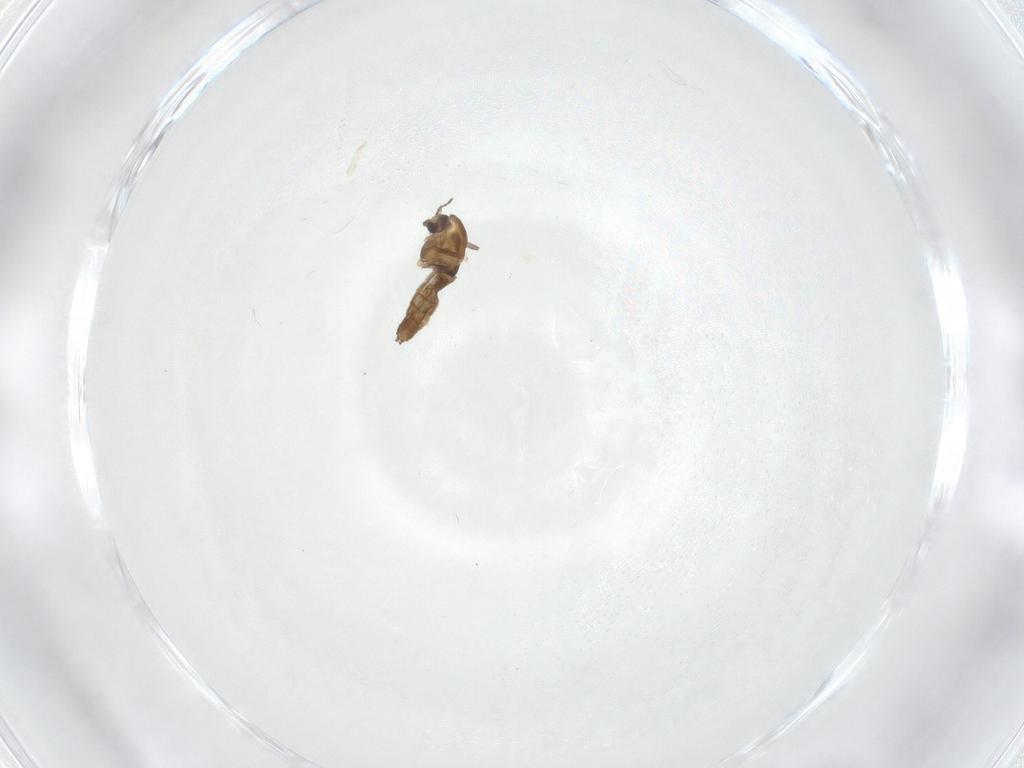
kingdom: Animalia
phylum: Arthropoda
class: Insecta
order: Diptera
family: Chironomidae
